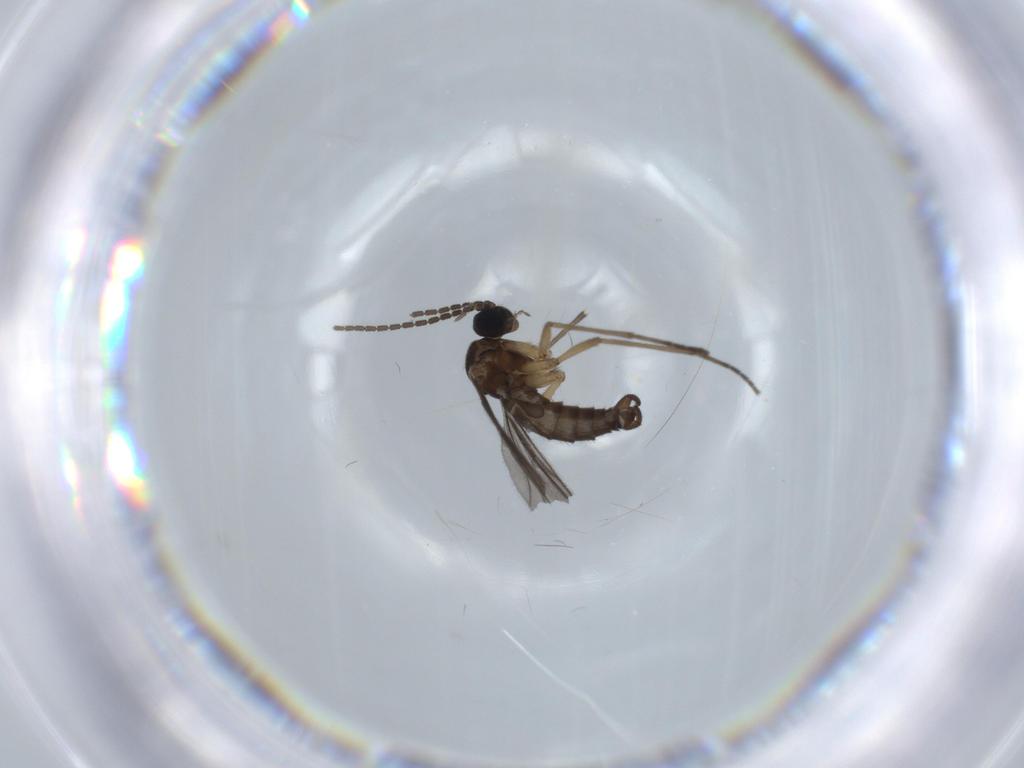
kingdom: Animalia
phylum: Arthropoda
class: Insecta
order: Diptera
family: Sciaridae
